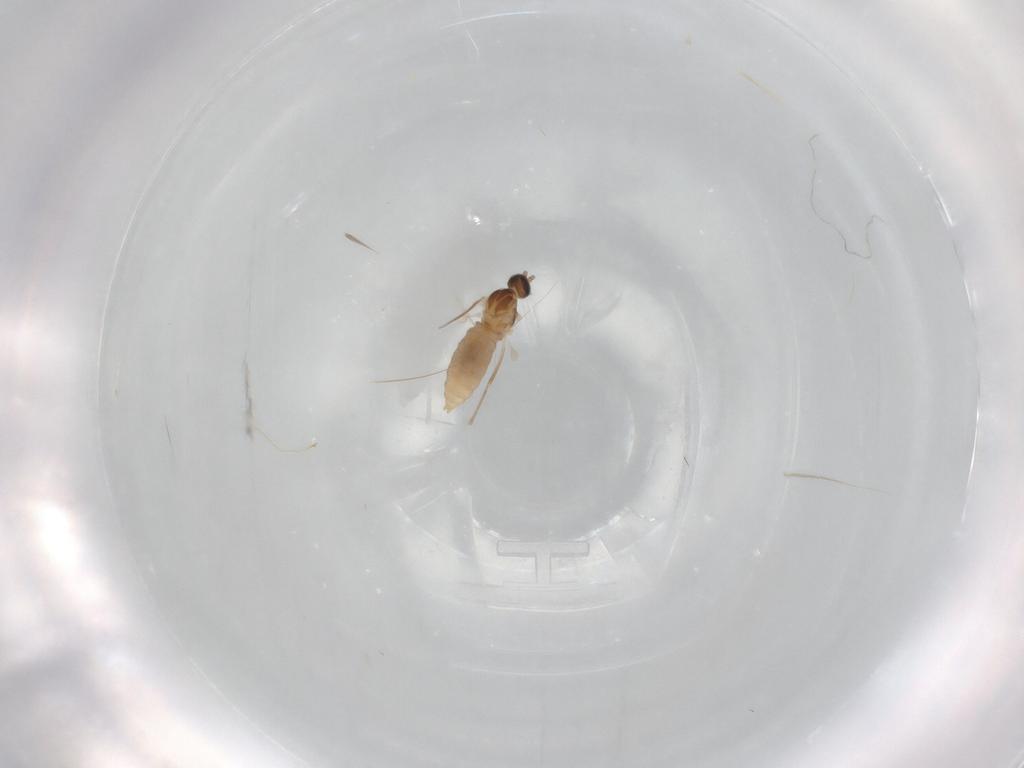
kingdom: Animalia
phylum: Arthropoda
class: Insecta
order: Diptera
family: Cecidomyiidae
